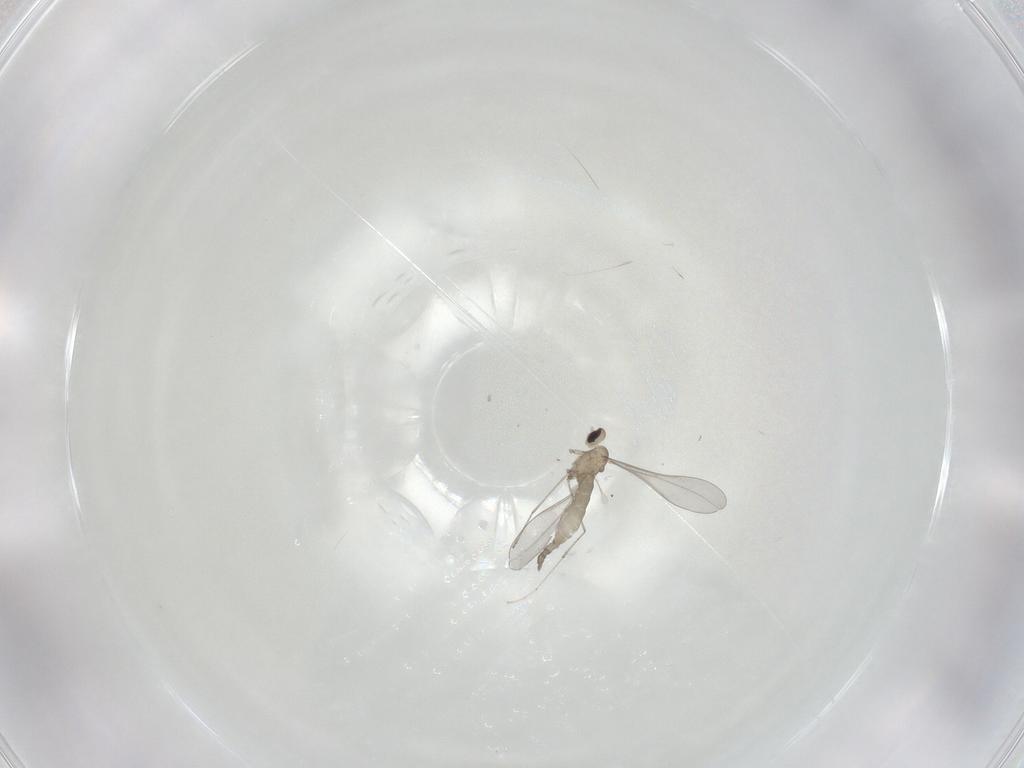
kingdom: Animalia
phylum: Arthropoda
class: Insecta
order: Diptera
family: Cecidomyiidae
